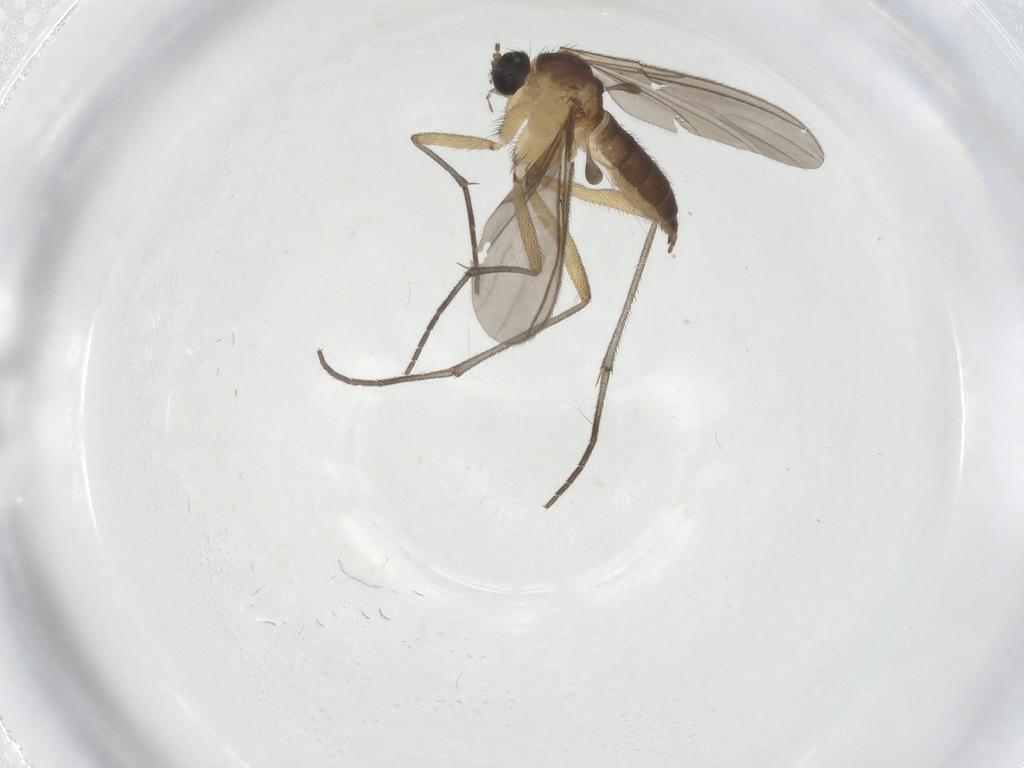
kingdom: Animalia
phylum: Arthropoda
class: Insecta
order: Diptera
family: Sciaridae
